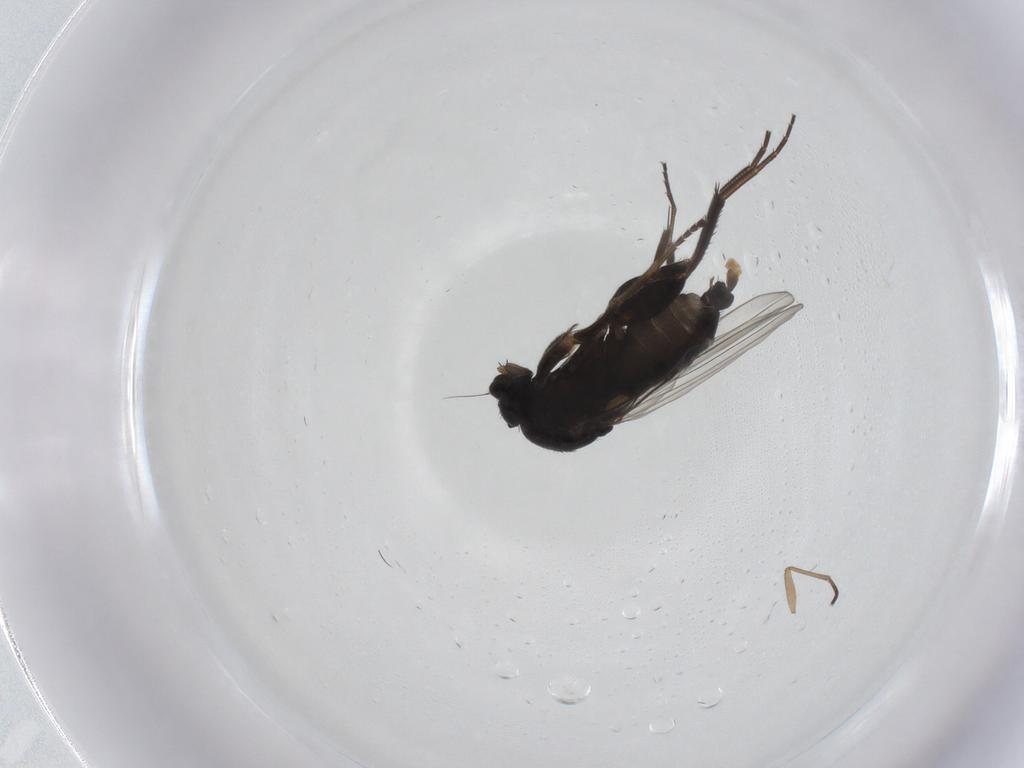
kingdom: Animalia
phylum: Arthropoda
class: Insecta
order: Diptera
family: Phoridae
